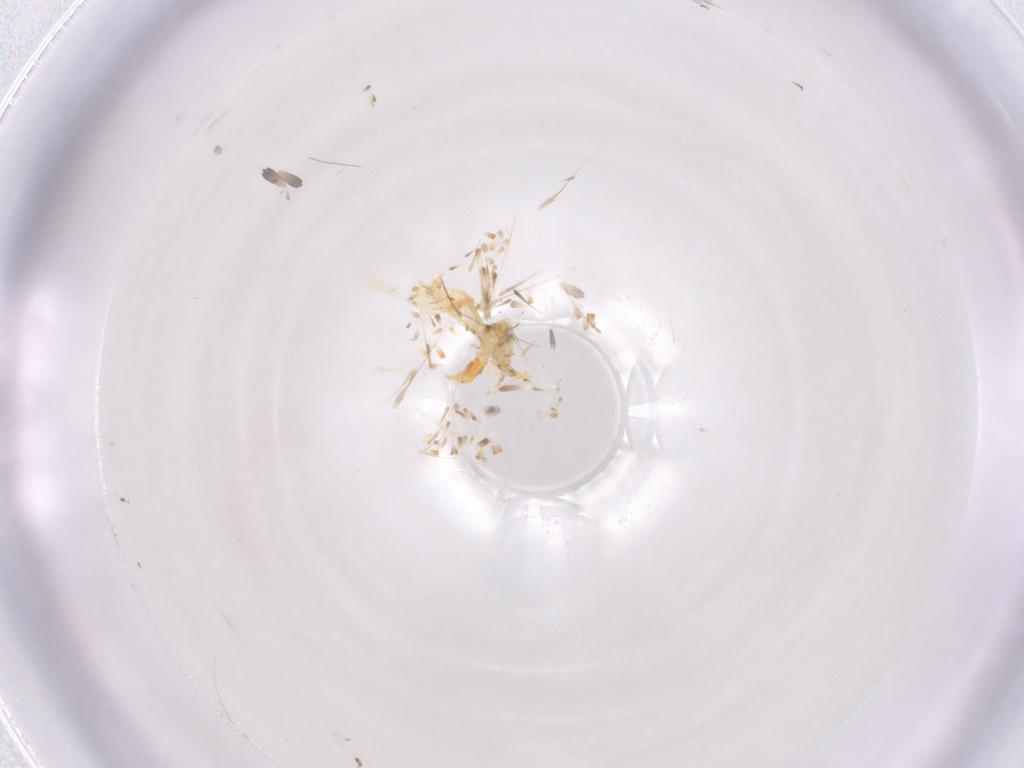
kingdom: Animalia
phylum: Arthropoda
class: Insecta
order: Hemiptera
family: Aleyrodidae
